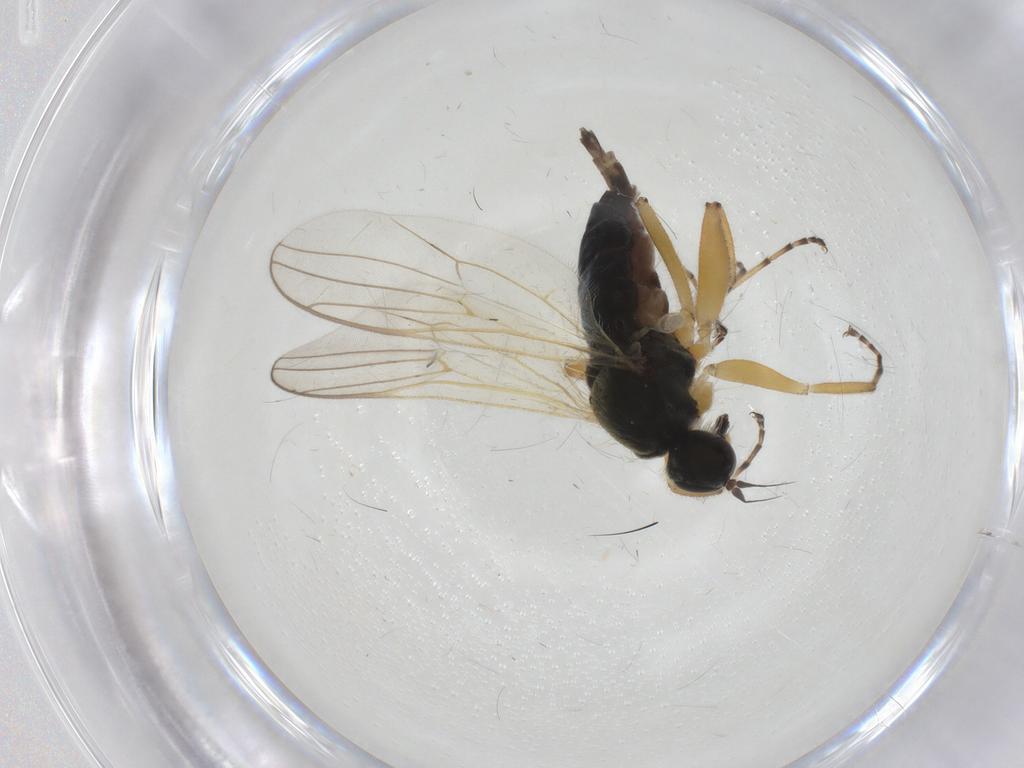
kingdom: Animalia
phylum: Arthropoda
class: Insecta
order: Diptera
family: Hybotidae
